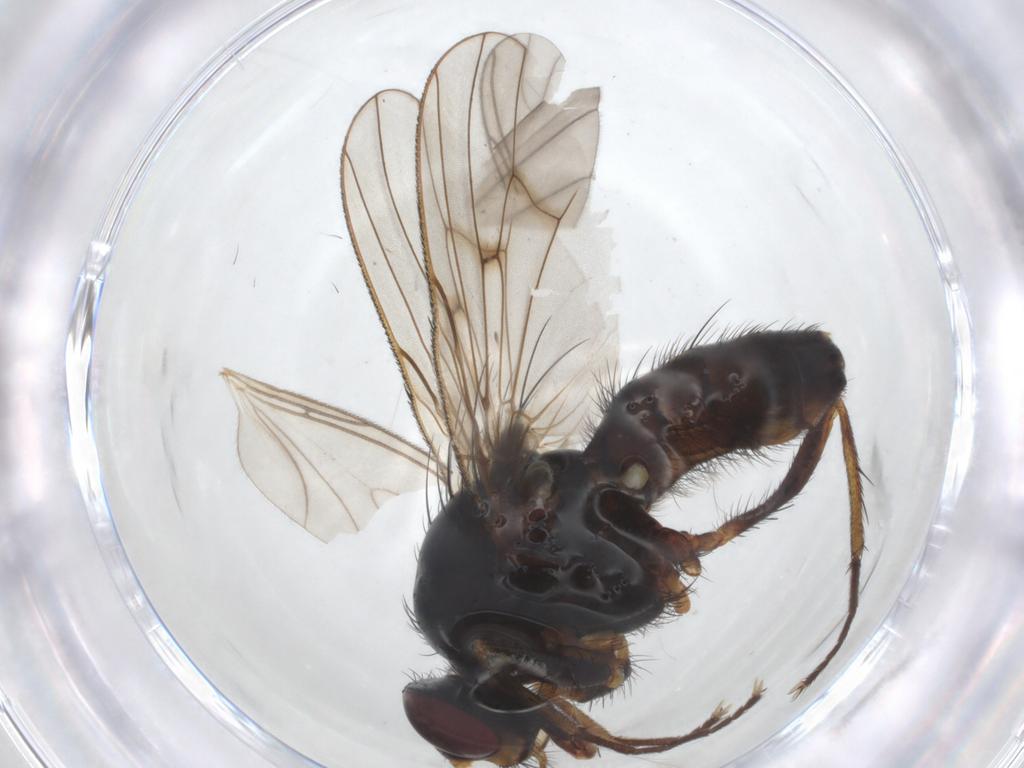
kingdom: Animalia
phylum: Arthropoda
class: Insecta
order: Diptera
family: Anthomyiidae
